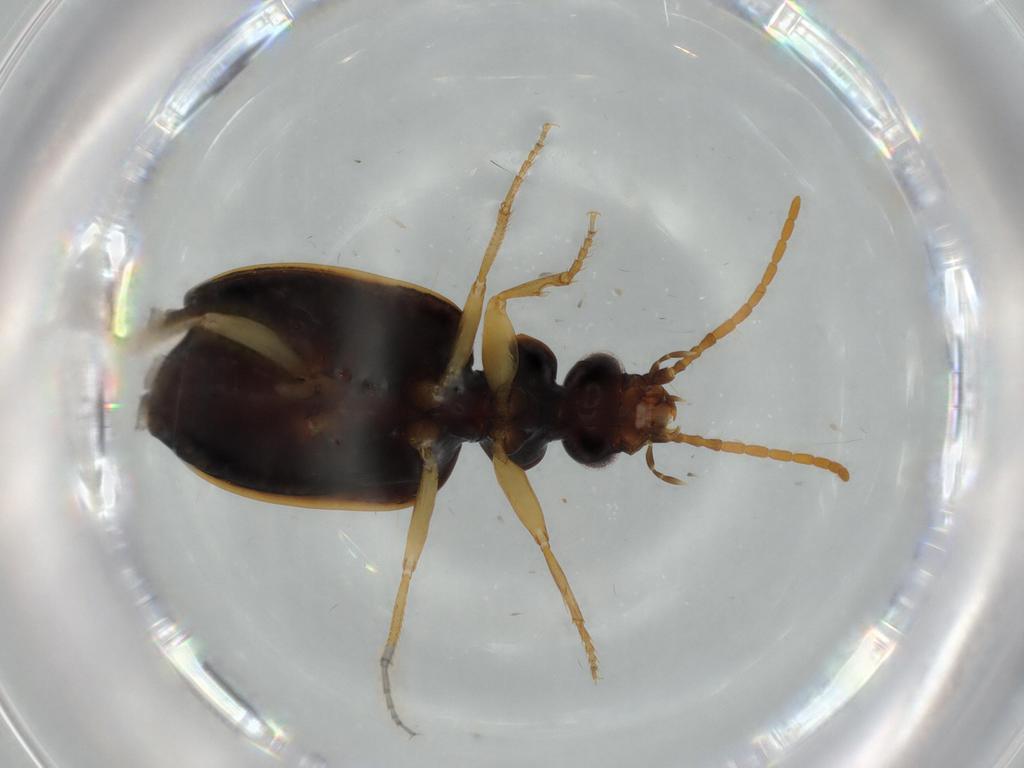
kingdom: Animalia
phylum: Arthropoda
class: Insecta
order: Coleoptera
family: Carabidae
